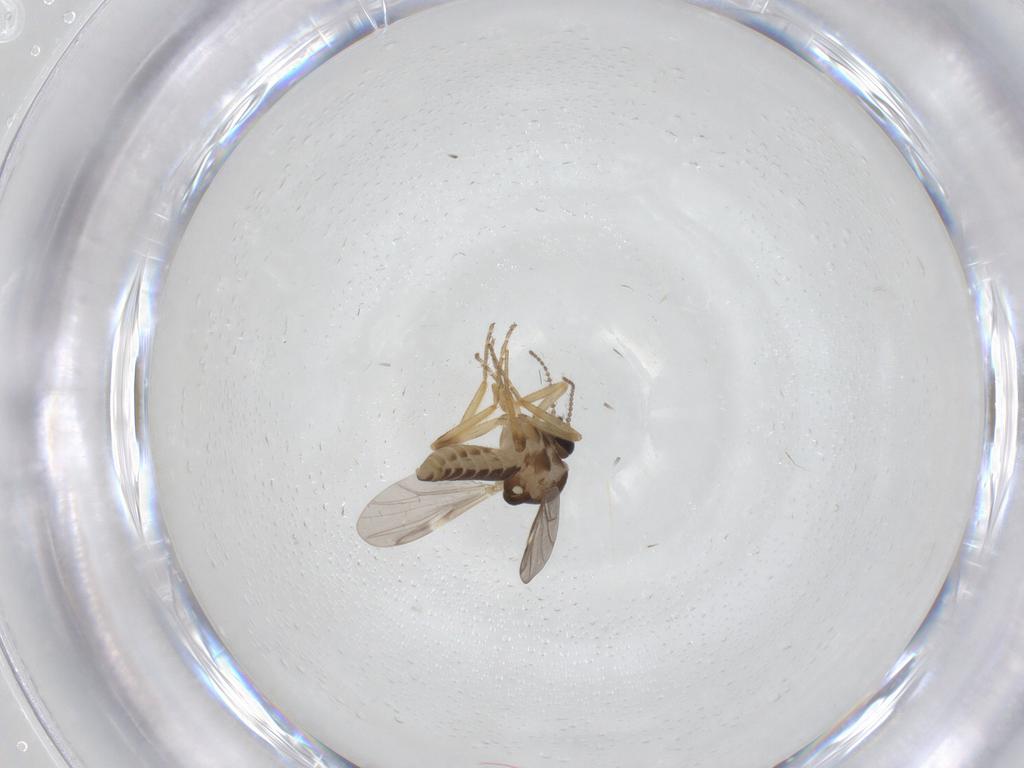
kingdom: Animalia
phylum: Arthropoda
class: Insecta
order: Diptera
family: Ceratopogonidae
